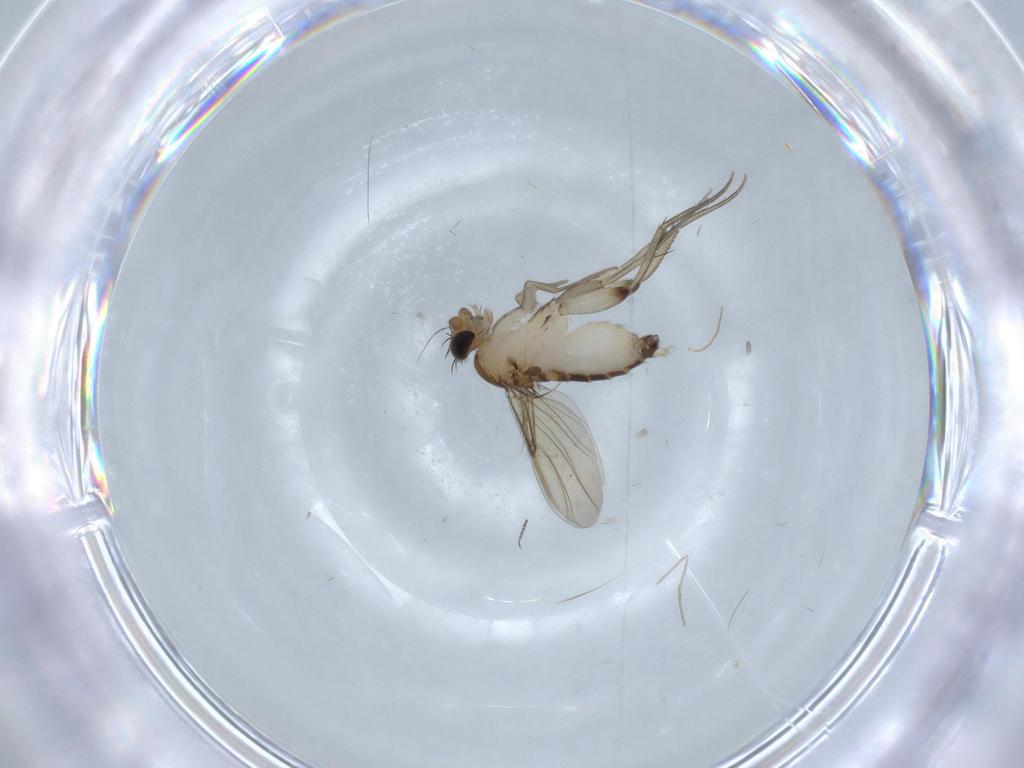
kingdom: Animalia
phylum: Arthropoda
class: Insecta
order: Diptera
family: Phoridae
